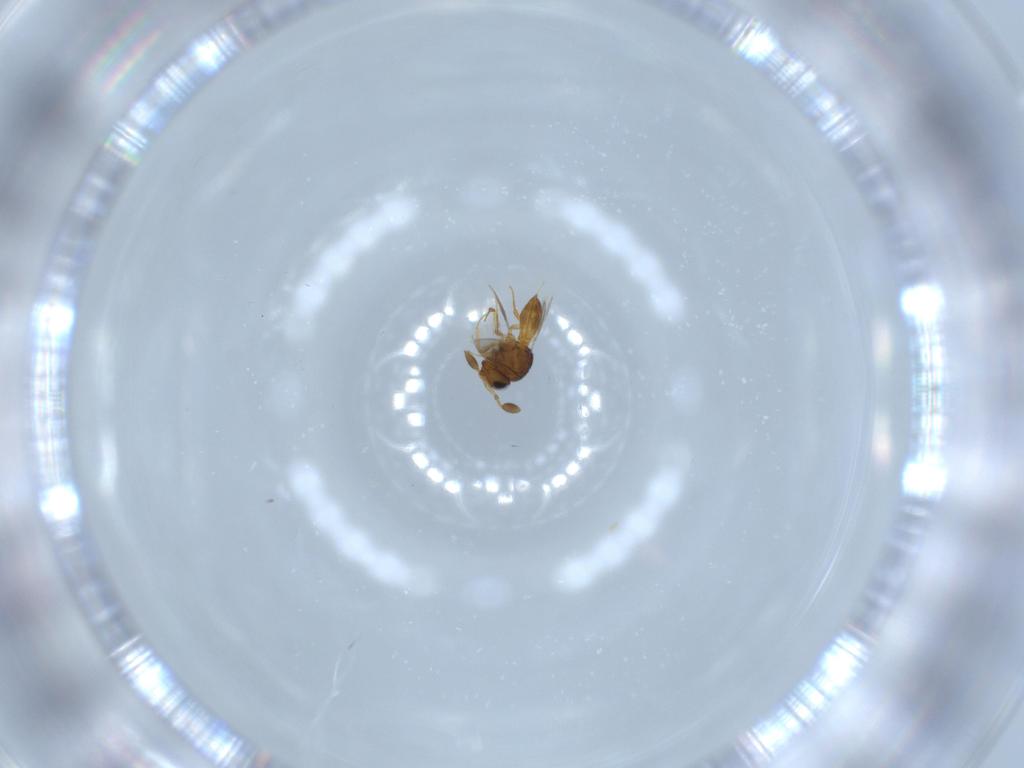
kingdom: Animalia
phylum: Arthropoda
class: Insecta
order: Hymenoptera
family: Scelionidae
